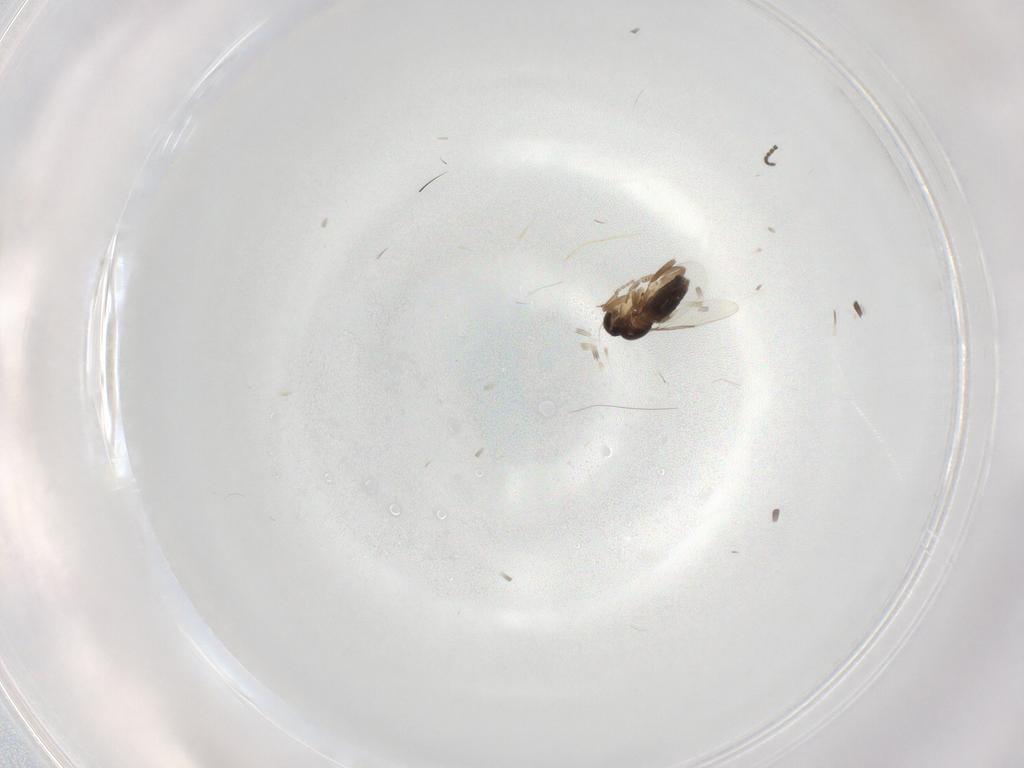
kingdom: Animalia
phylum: Arthropoda
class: Insecta
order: Diptera
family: Phoridae
